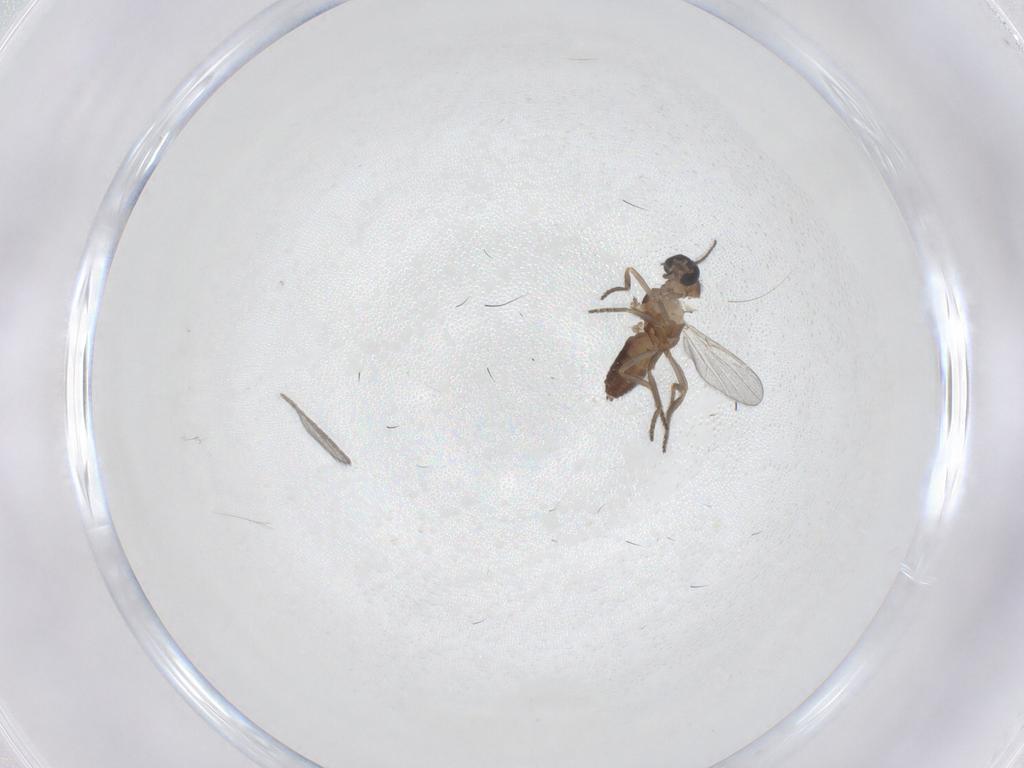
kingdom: Animalia
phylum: Arthropoda
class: Insecta
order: Diptera
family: Ceratopogonidae
